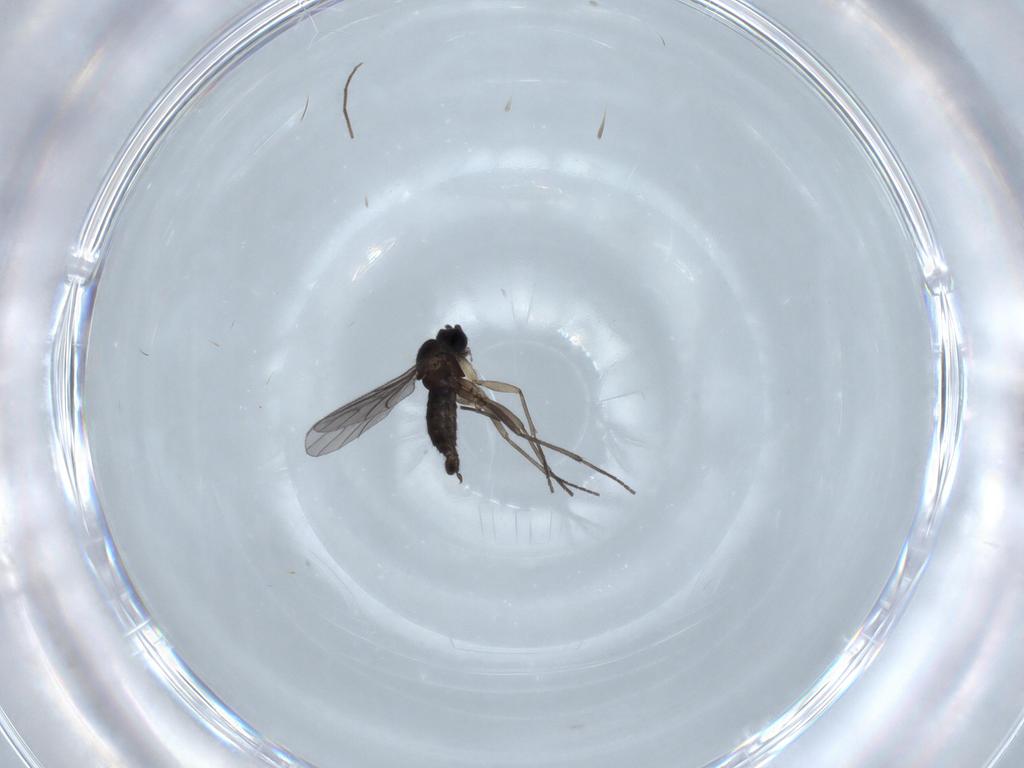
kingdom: Animalia
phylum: Arthropoda
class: Insecta
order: Diptera
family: Sciaridae
